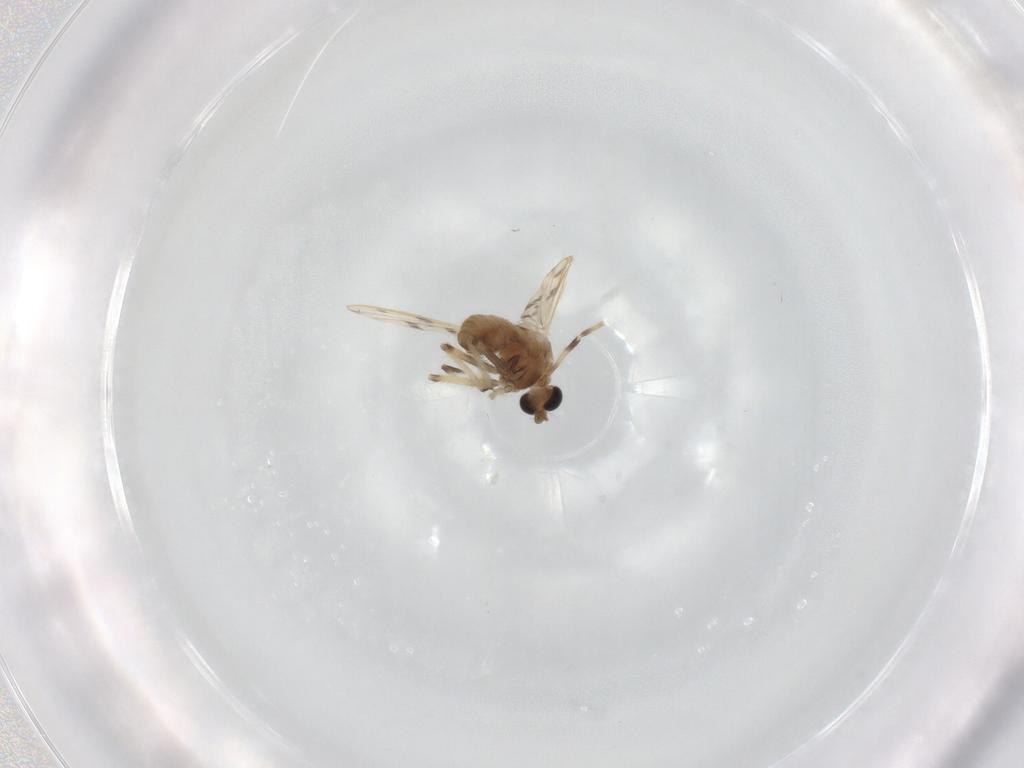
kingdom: Animalia
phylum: Arthropoda
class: Insecta
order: Diptera
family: Chironomidae
